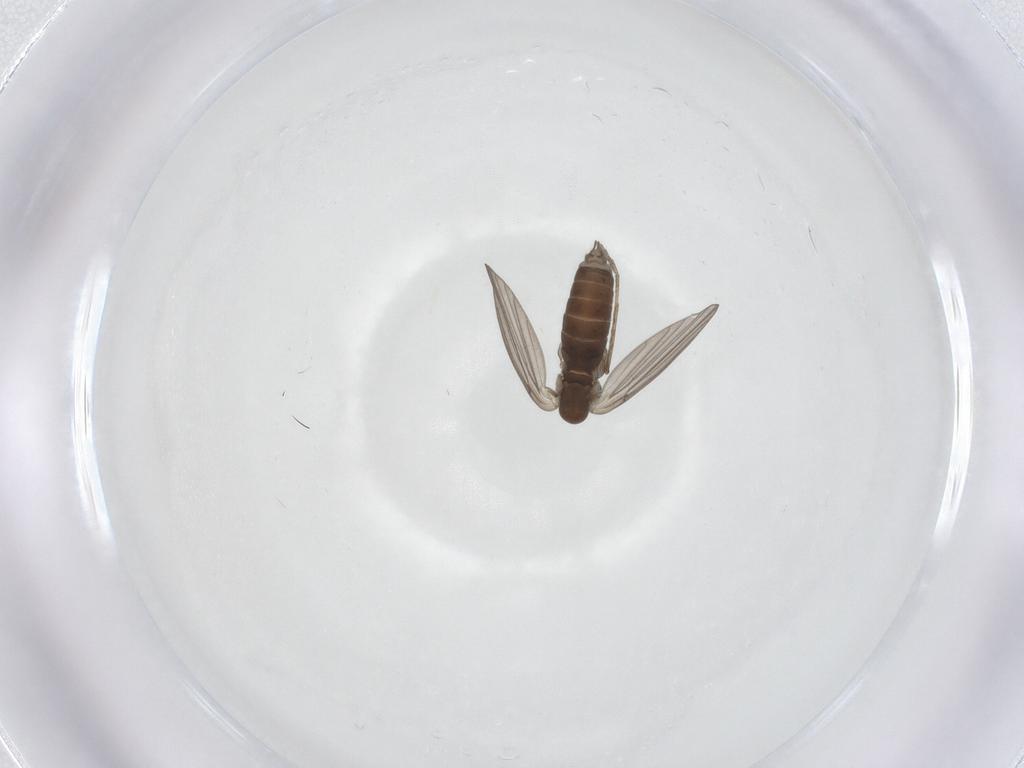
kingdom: Animalia
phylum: Arthropoda
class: Insecta
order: Diptera
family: Tabanidae
